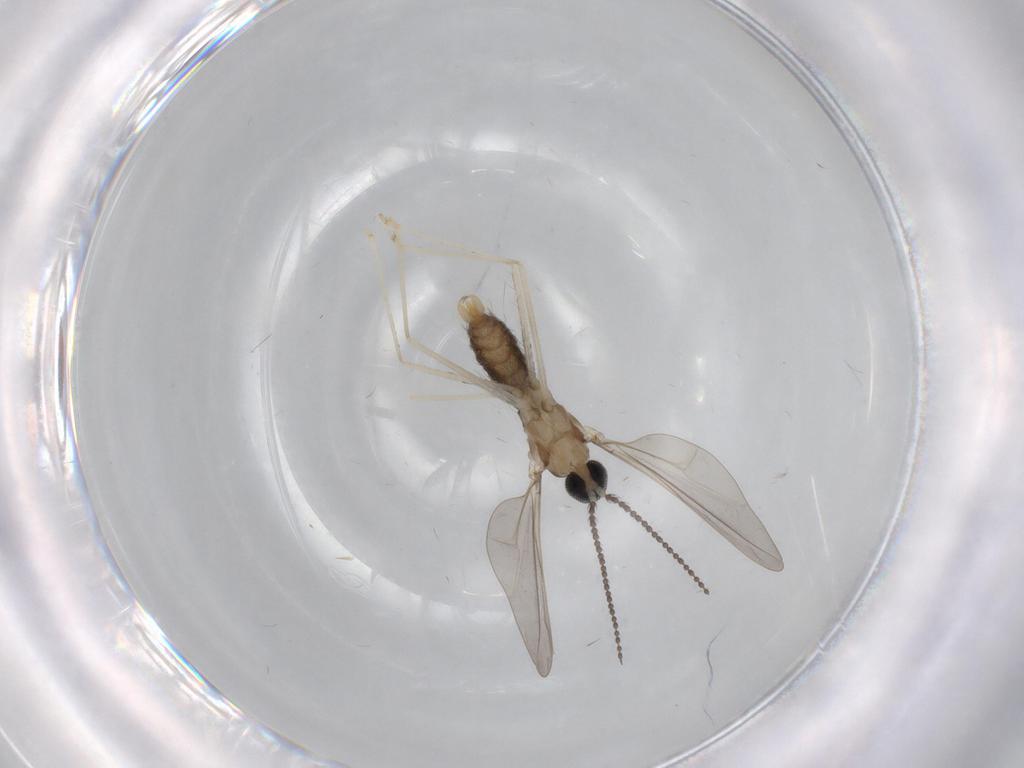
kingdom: Animalia
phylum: Arthropoda
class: Insecta
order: Diptera
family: Cecidomyiidae
